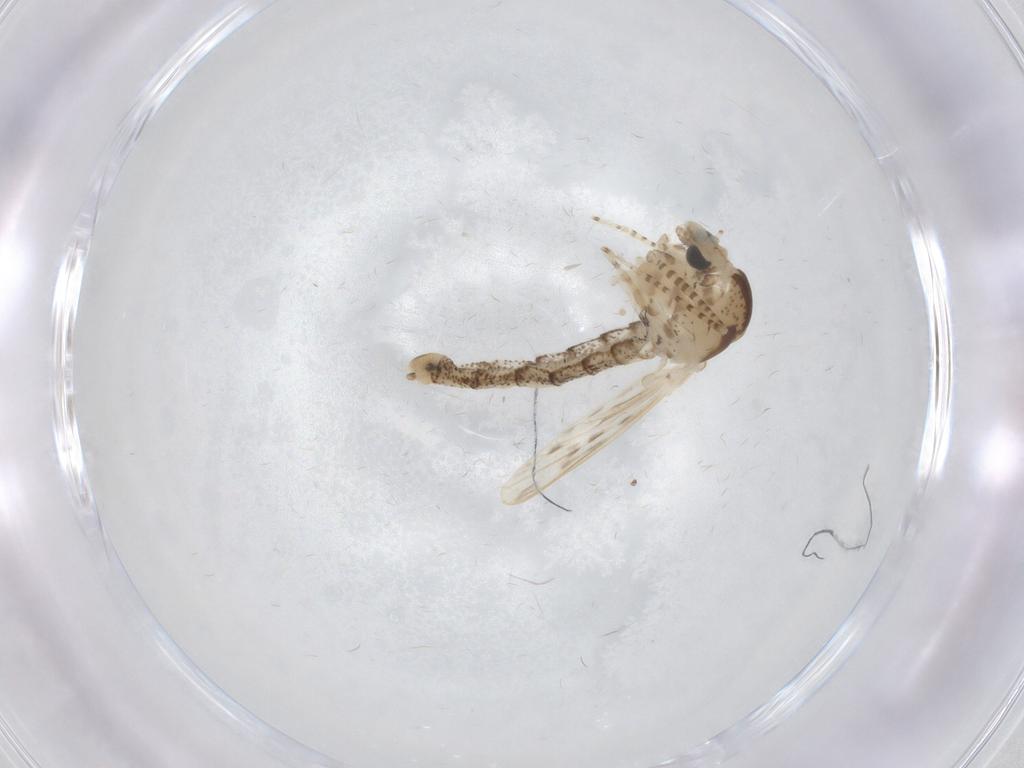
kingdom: Animalia
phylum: Arthropoda
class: Insecta
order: Diptera
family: Chaoboridae
